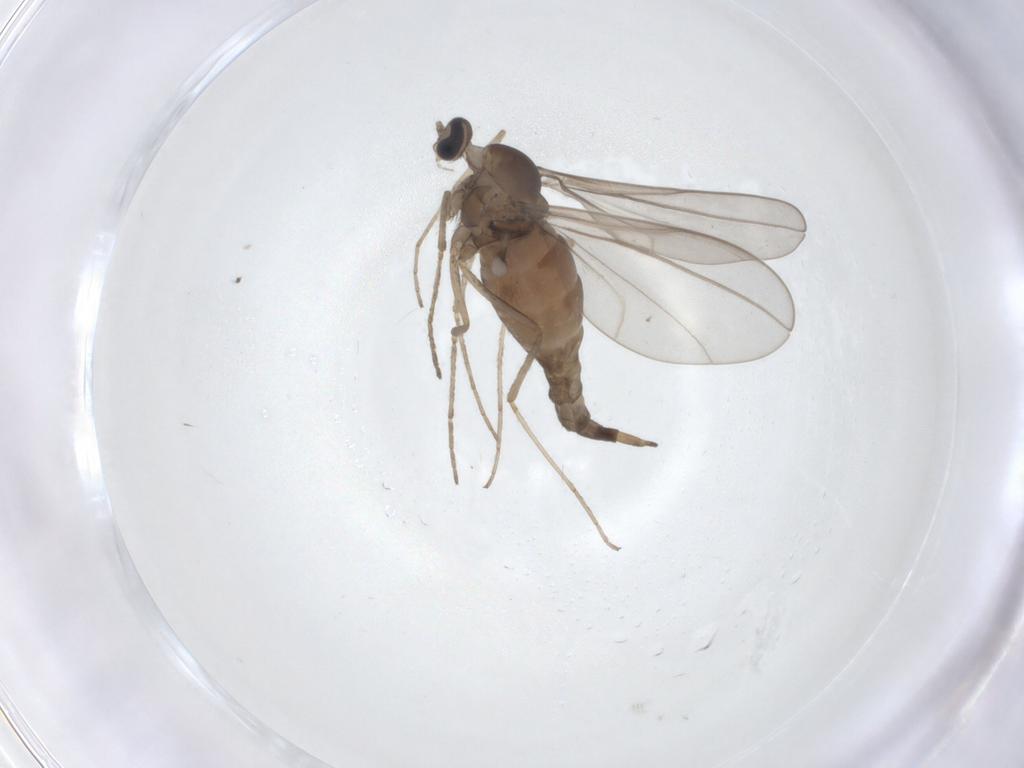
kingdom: Animalia
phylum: Arthropoda
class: Insecta
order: Diptera
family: Cecidomyiidae
